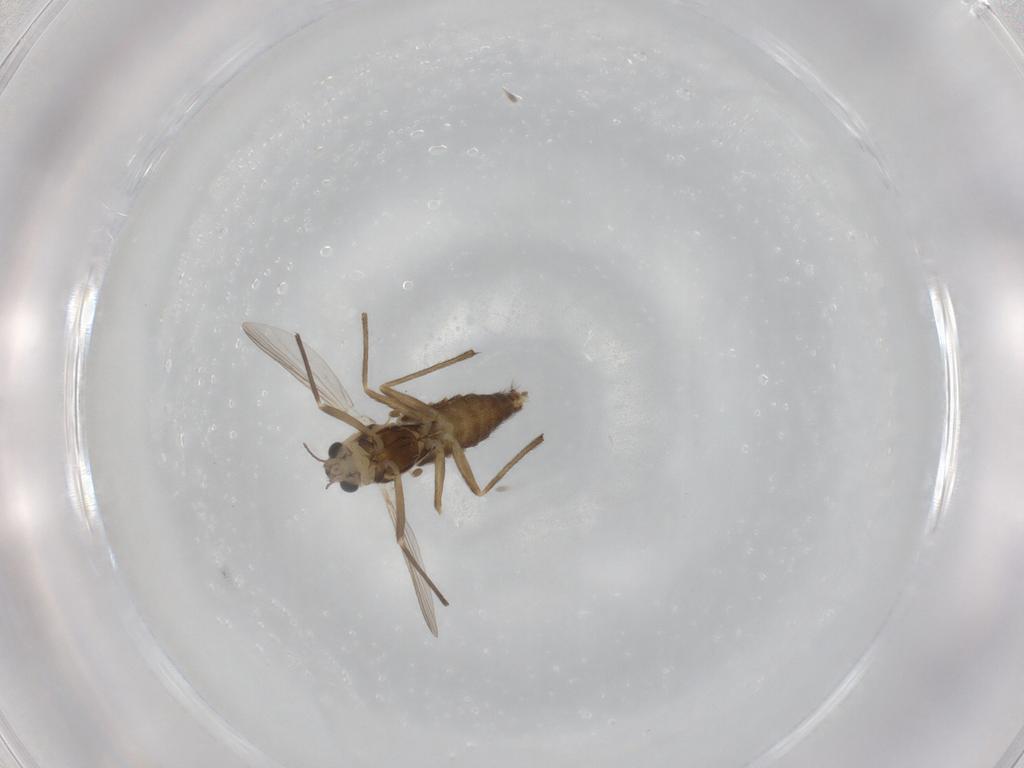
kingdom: Animalia
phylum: Arthropoda
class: Insecta
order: Diptera
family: Chironomidae
